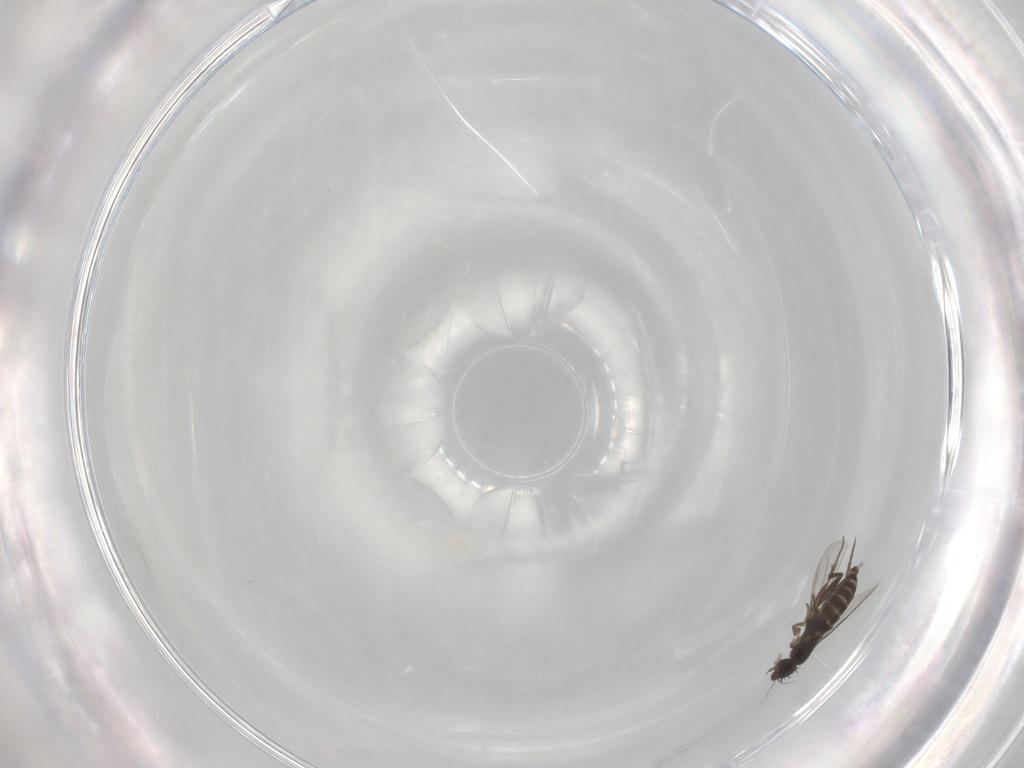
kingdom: Animalia
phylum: Arthropoda
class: Insecta
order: Diptera
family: Phoridae
